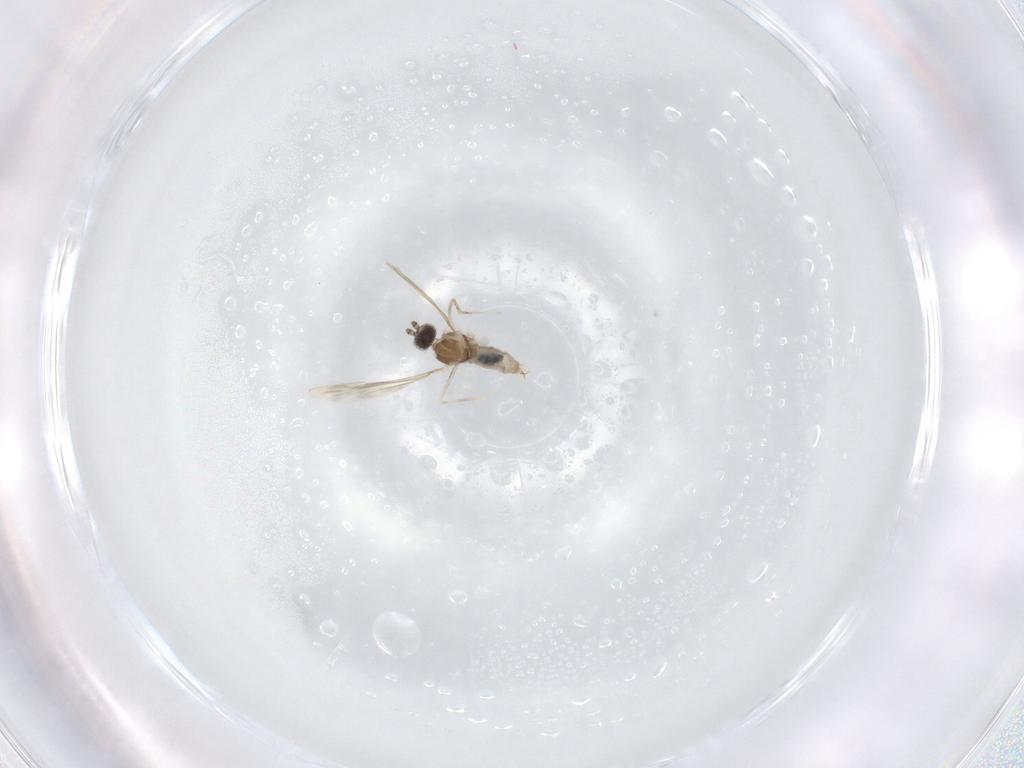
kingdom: Animalia
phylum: Arthropoda
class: Insecta
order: Diptera
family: Cecidomyiidae
